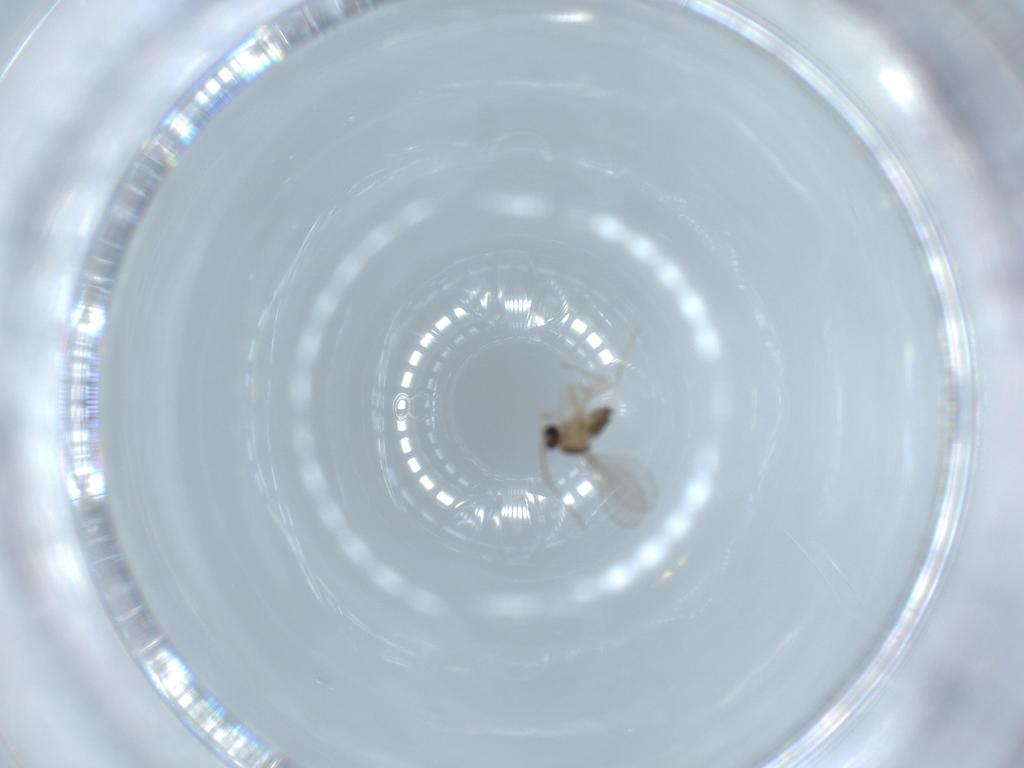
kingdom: Animalia
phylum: Arthropoda
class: Insecta
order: Diptera
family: Cecidomyiidae
